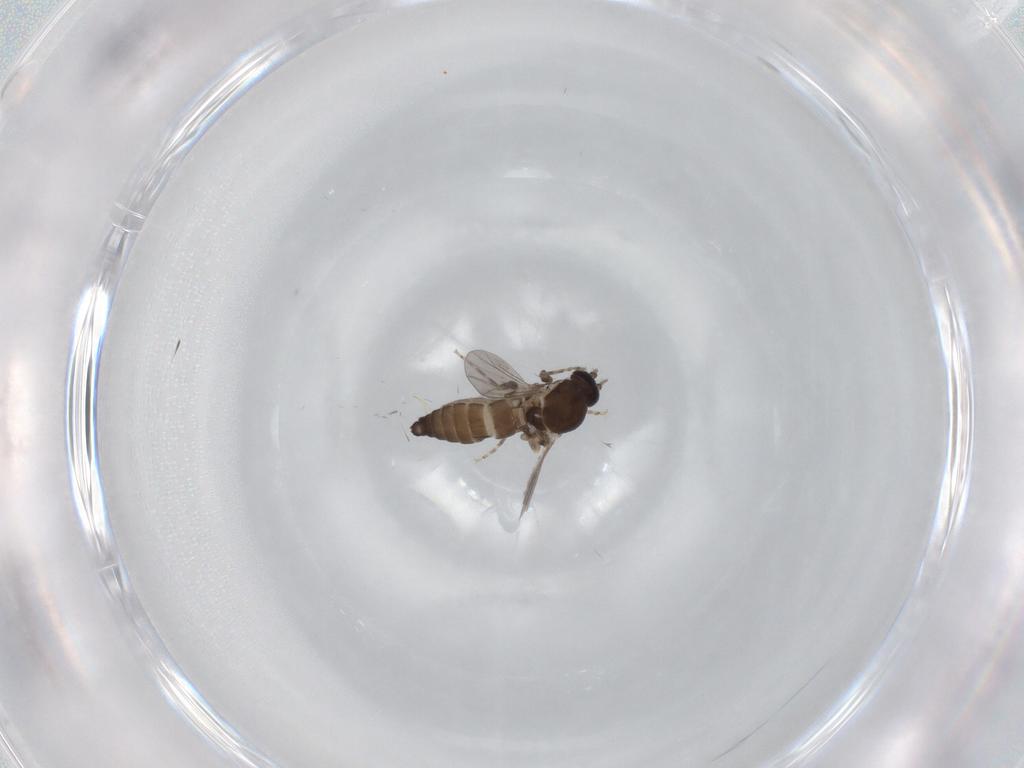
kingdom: Animalia
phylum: Arthropoda
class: Insecta
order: Diptera
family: Ceratopogonidae
